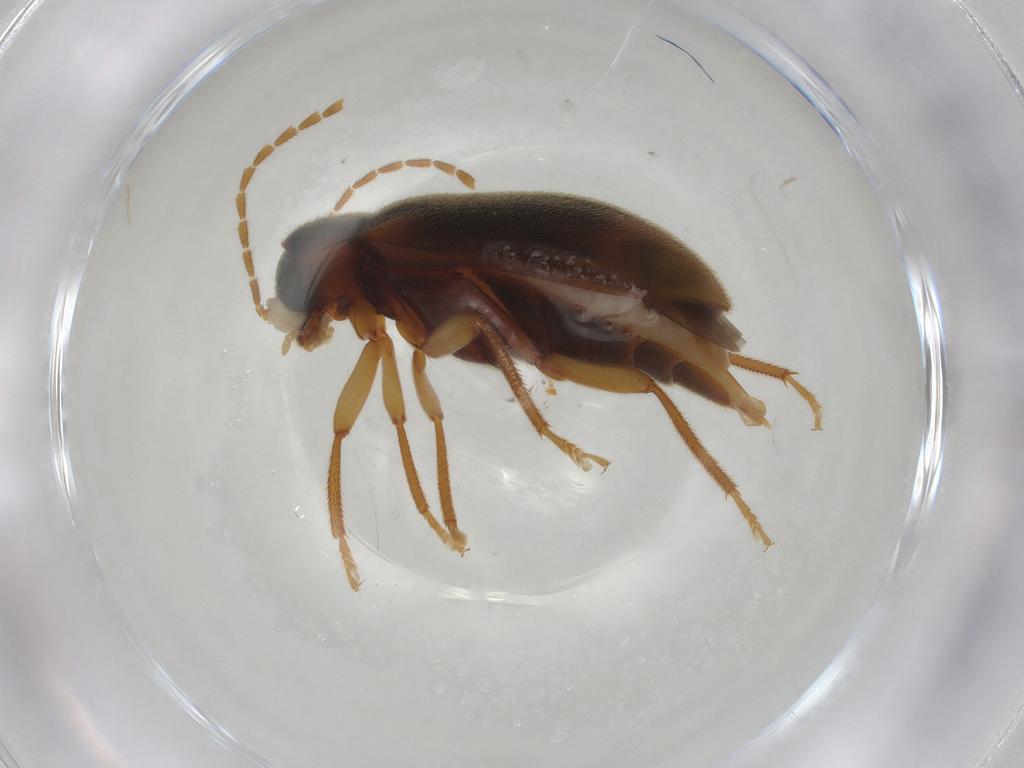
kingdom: Animalia
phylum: Arthropoda
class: Insecta
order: Coleoptera
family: Ptilodactylidae
